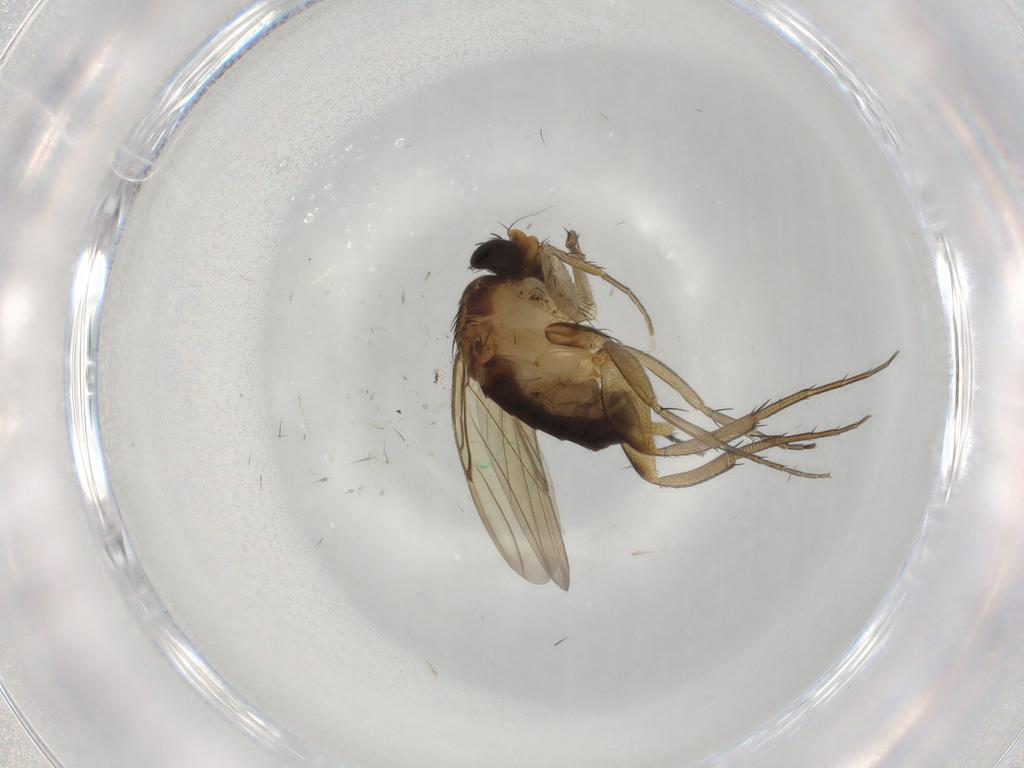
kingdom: Animalia
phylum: Arthropoda
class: Insecta
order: Diptera
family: Phoridae
